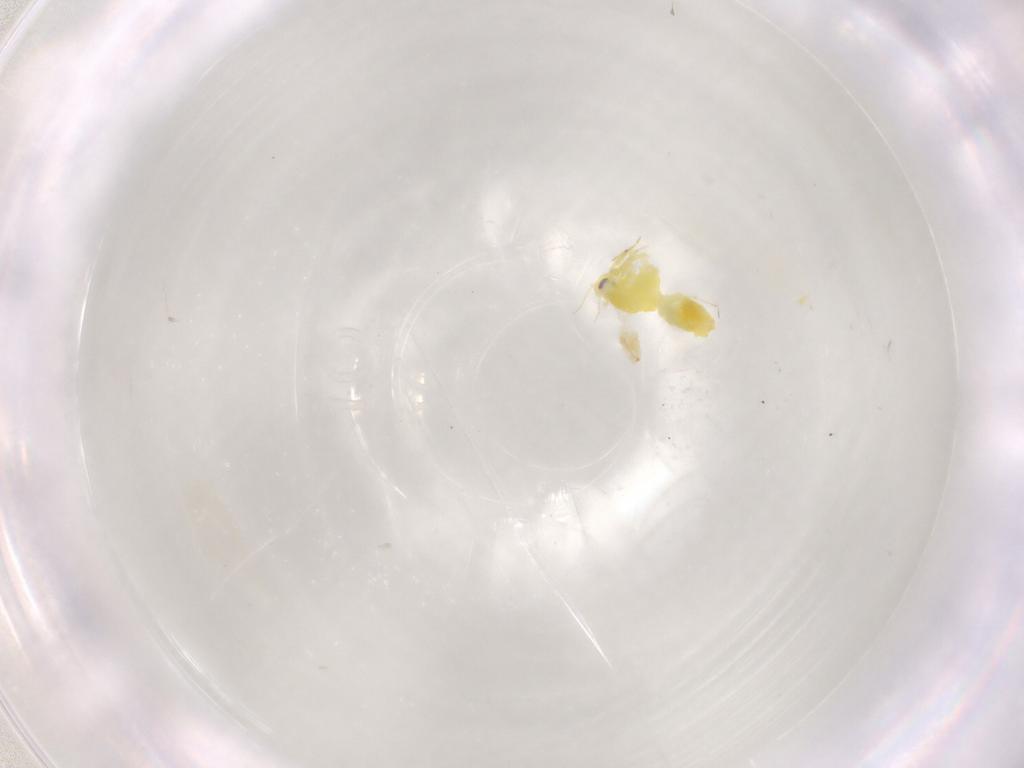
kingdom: Animalia
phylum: Arthropoda
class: Insecta
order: Hemiptera
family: Aleyrodidae
